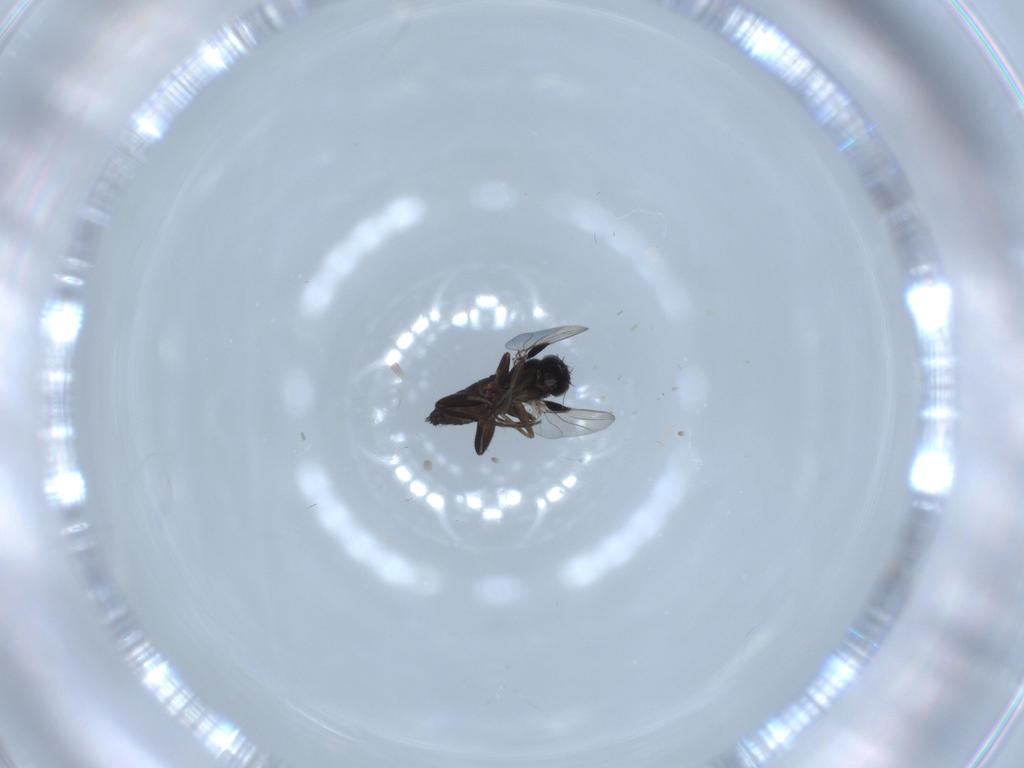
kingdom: Animalia
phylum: Arthropoda
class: Insecta
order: Diptera
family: Phoridae
